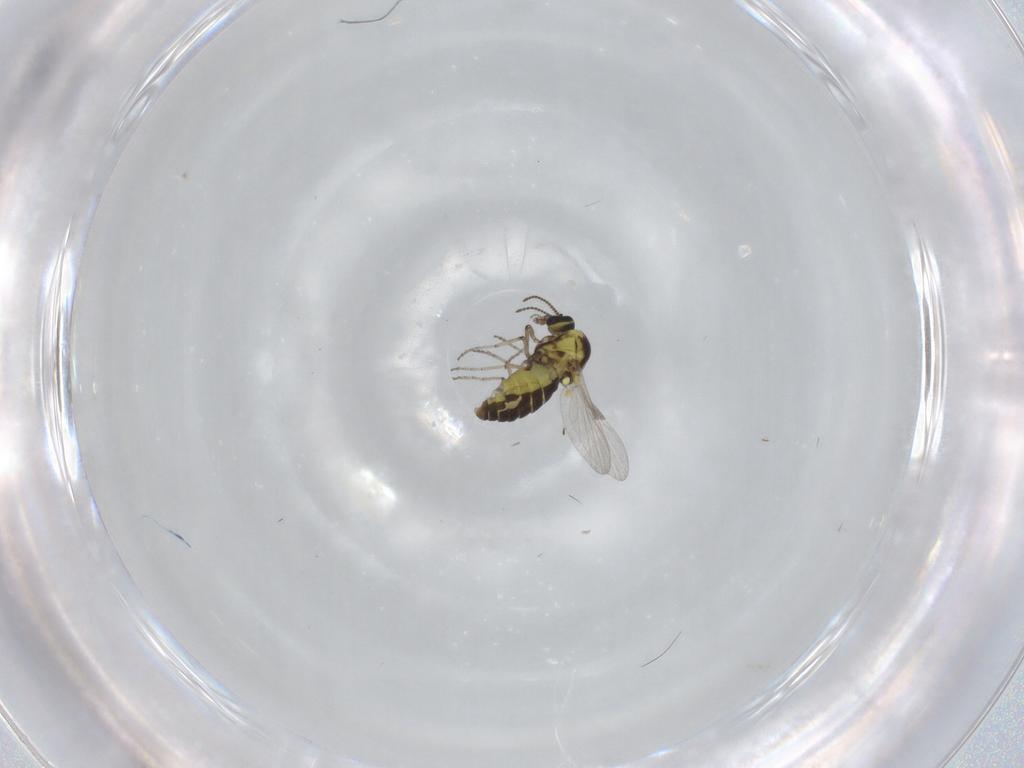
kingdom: Animalia
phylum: Arthropoda
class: Insecta
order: Diptera
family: Ceratopogonidae
